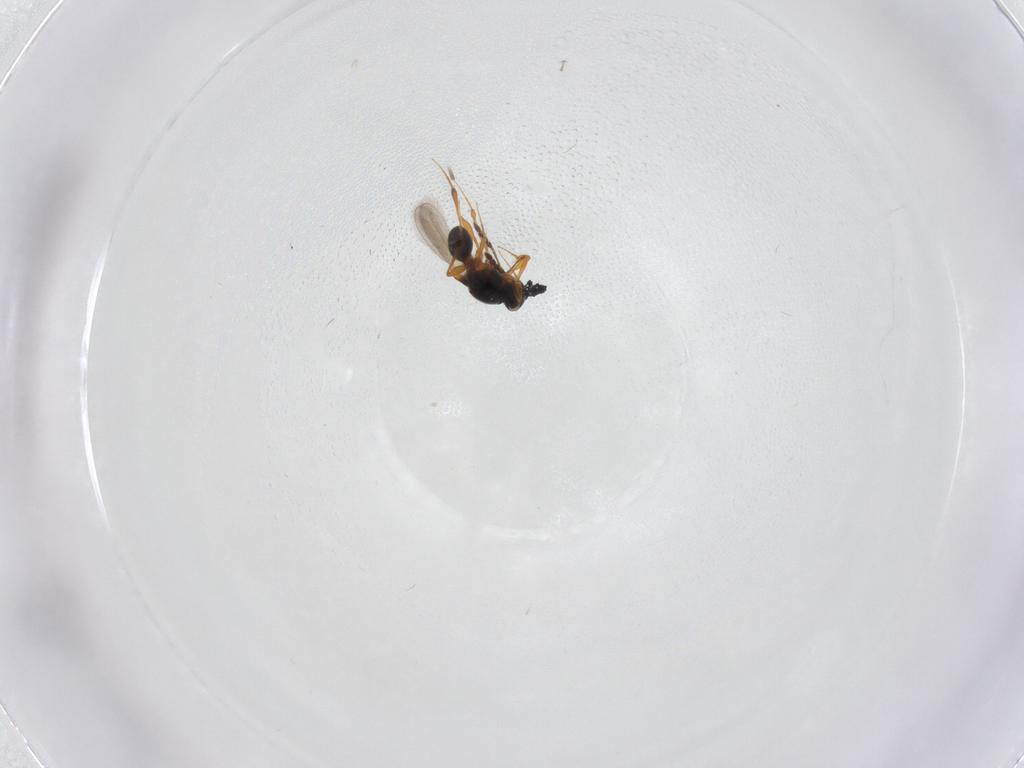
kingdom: Animalia
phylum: Arthropoda
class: Insecta
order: Hymenoptera
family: Platygastridae
